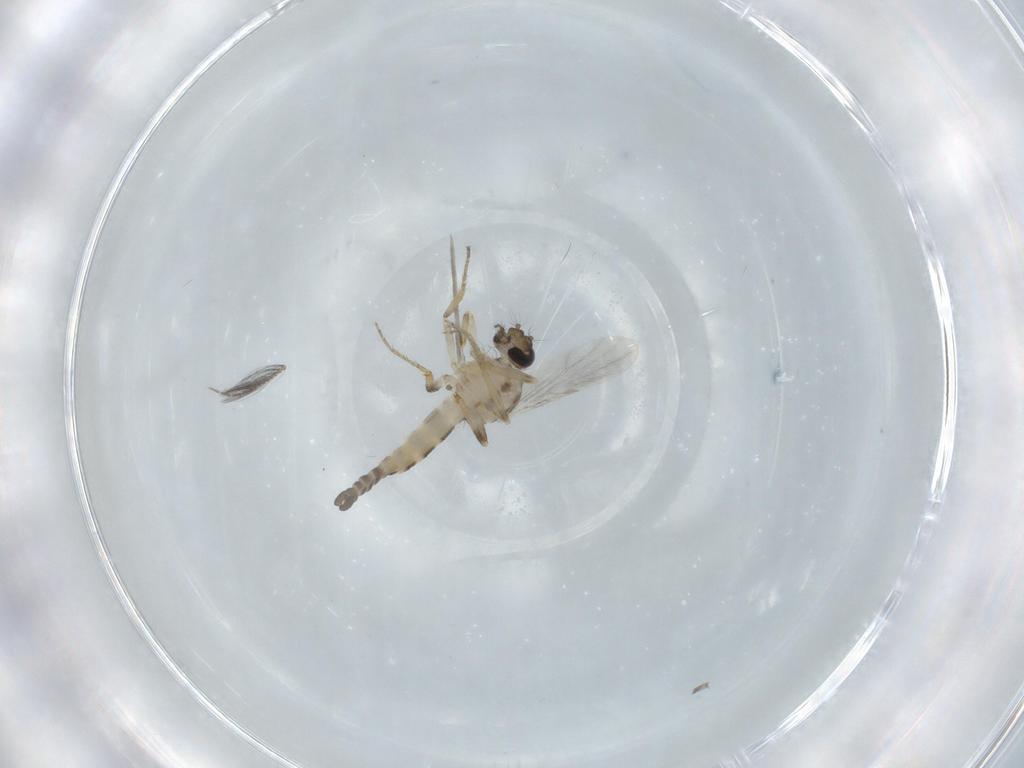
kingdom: Animalia
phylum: Arthropoda
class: Insecta
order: Diptera
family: Ceratopogonidae
